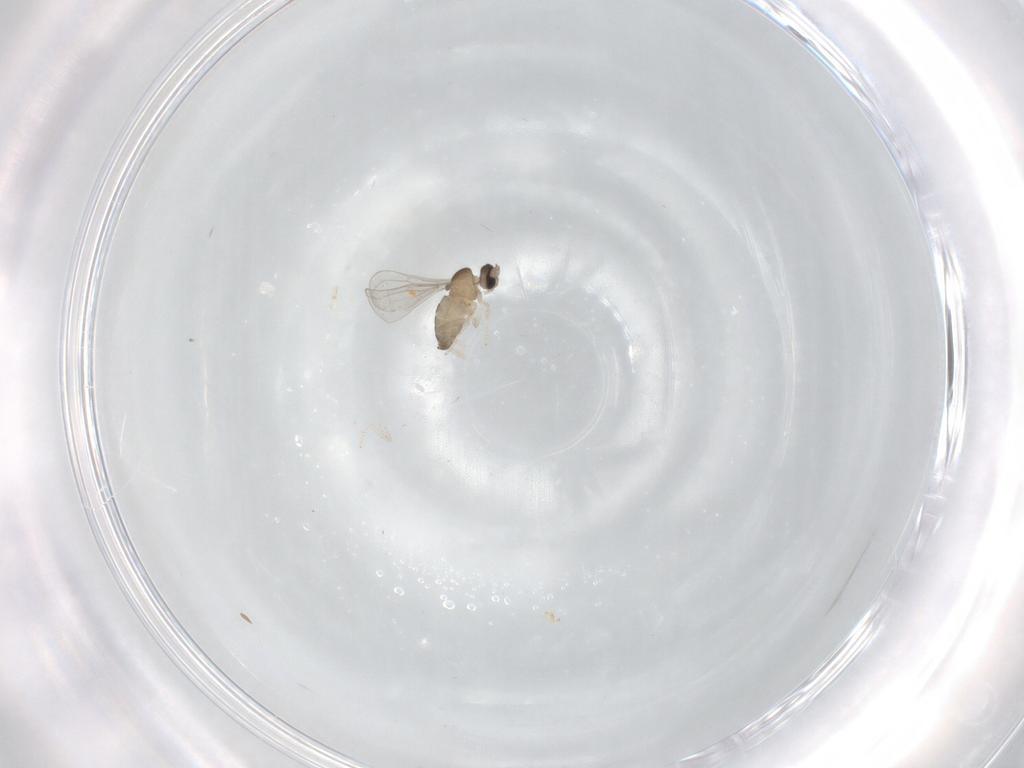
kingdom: Animalia
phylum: Arthropoda
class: Insecta
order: Diptera
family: Cecidomyiidae
